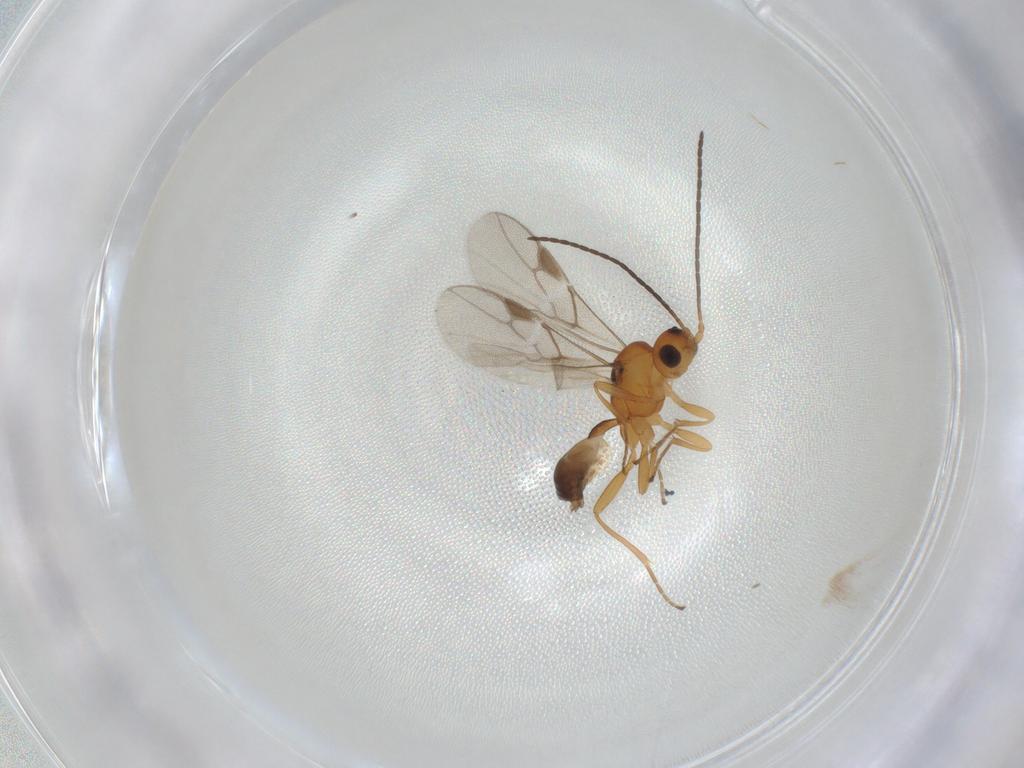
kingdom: Animalia
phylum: Arthropoda
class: Insecta
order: Hymenoptera
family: Braconidae
